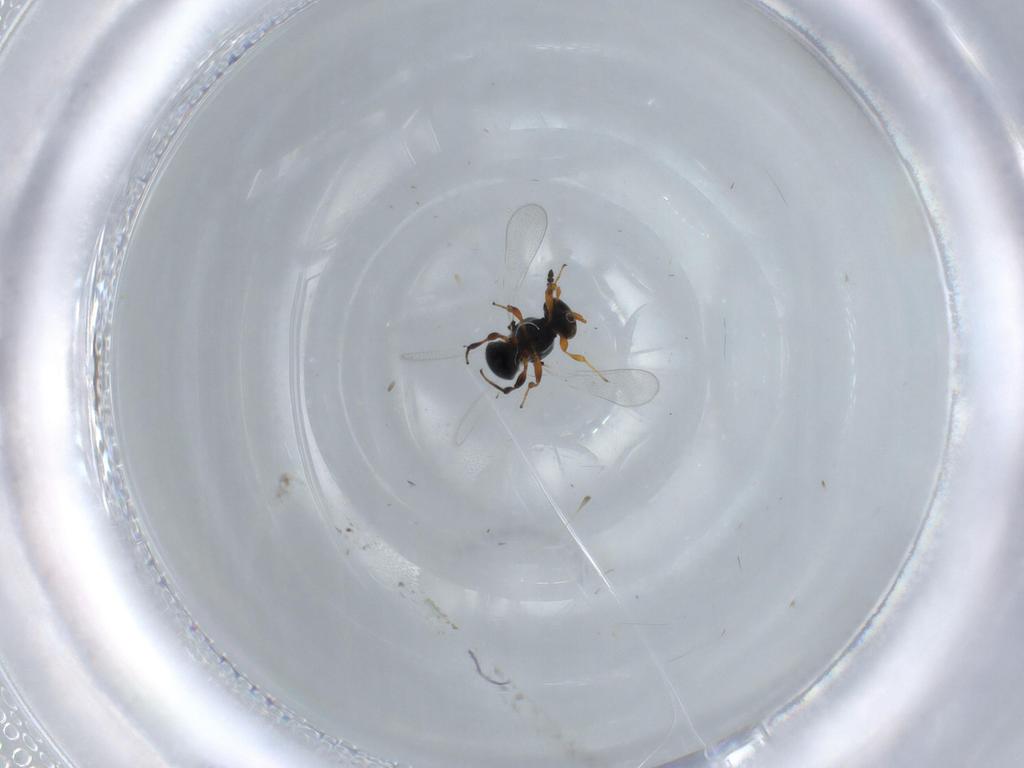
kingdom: Animalia
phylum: Arthropoda
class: Insecta
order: Hymenoptera
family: Platygastridae
